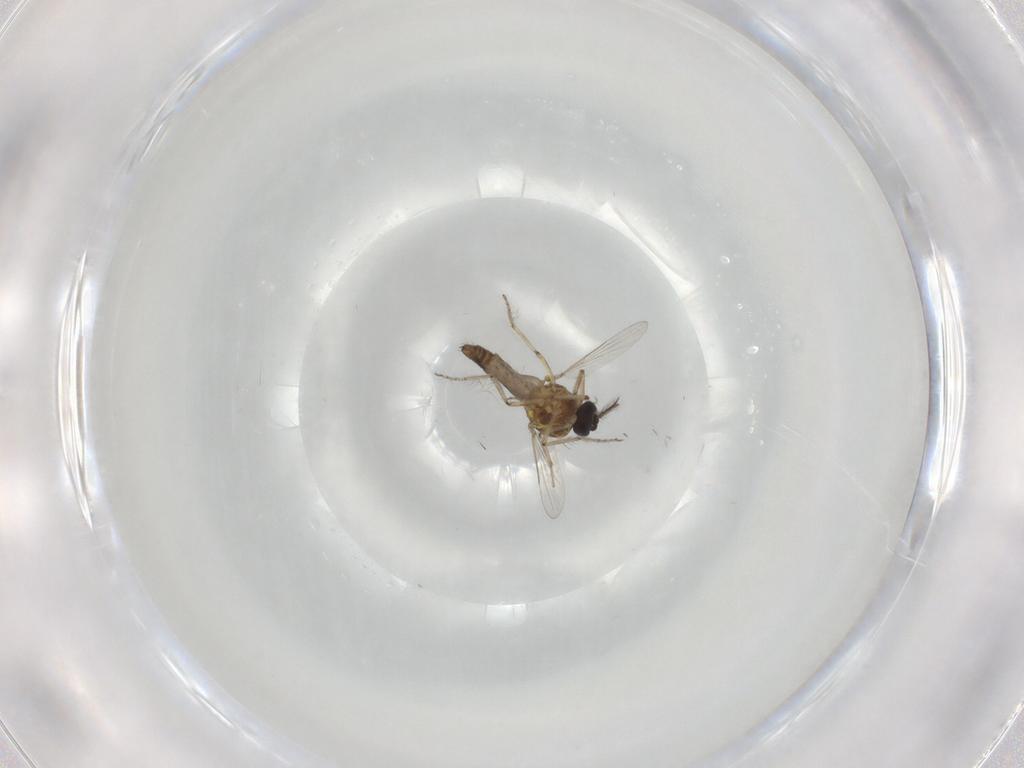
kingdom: Animalia
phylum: Arthropoda
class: Insecta
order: Diptera
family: Ceratopogonidae
